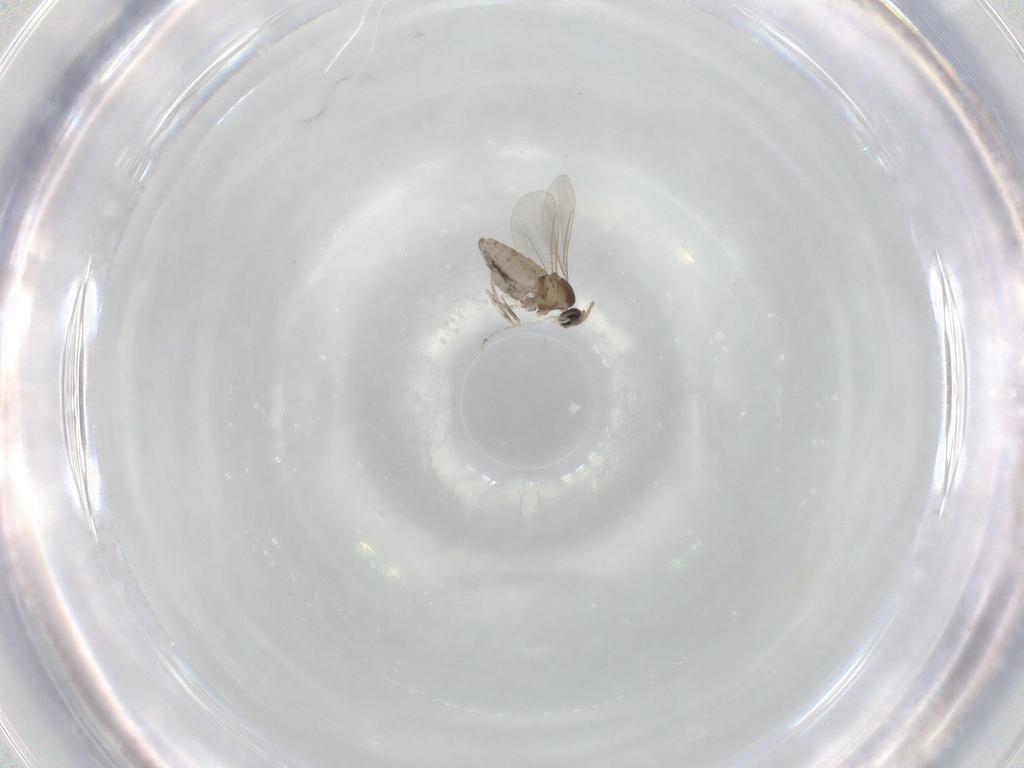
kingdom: Animalia
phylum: Arthropoda
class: Insecta
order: Diptera
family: Cecidomyiidae
